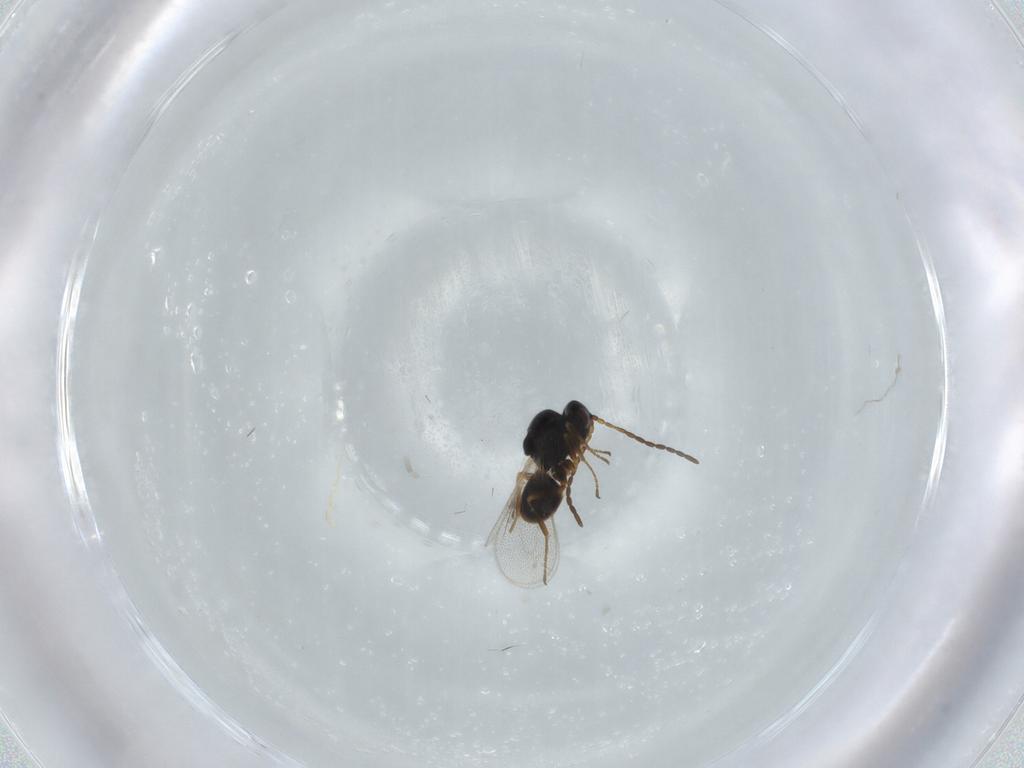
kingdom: Animalia
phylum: Arthropoda
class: Insecta
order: Hymenoptera
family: Figitidae
